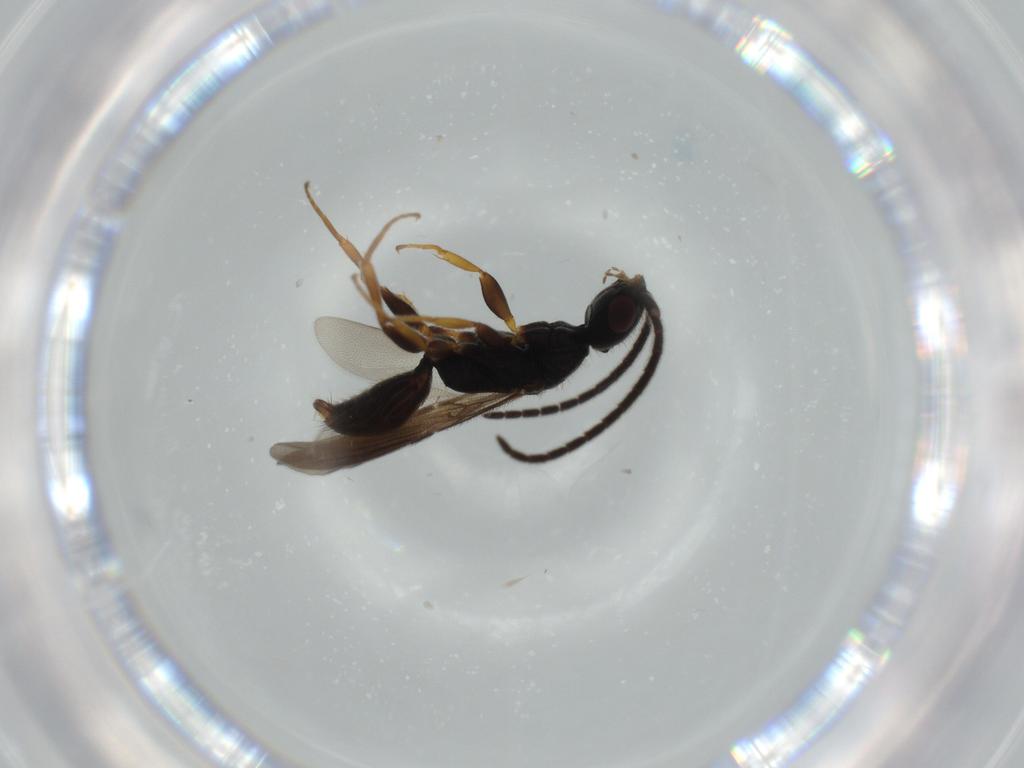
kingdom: Animalia
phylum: Arthropoda
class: Insecta
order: Hymenoptera
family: Bethylidae
